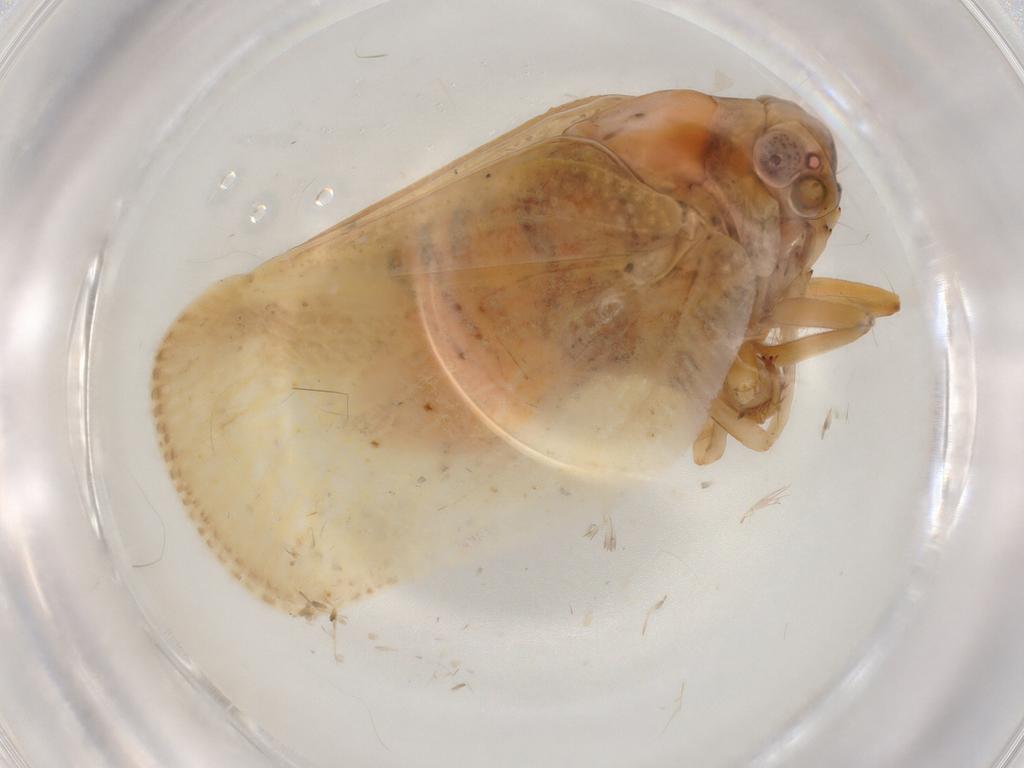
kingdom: Animalia
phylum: Arthropoda
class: Insecta
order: Hemiptera
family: Flatidae
